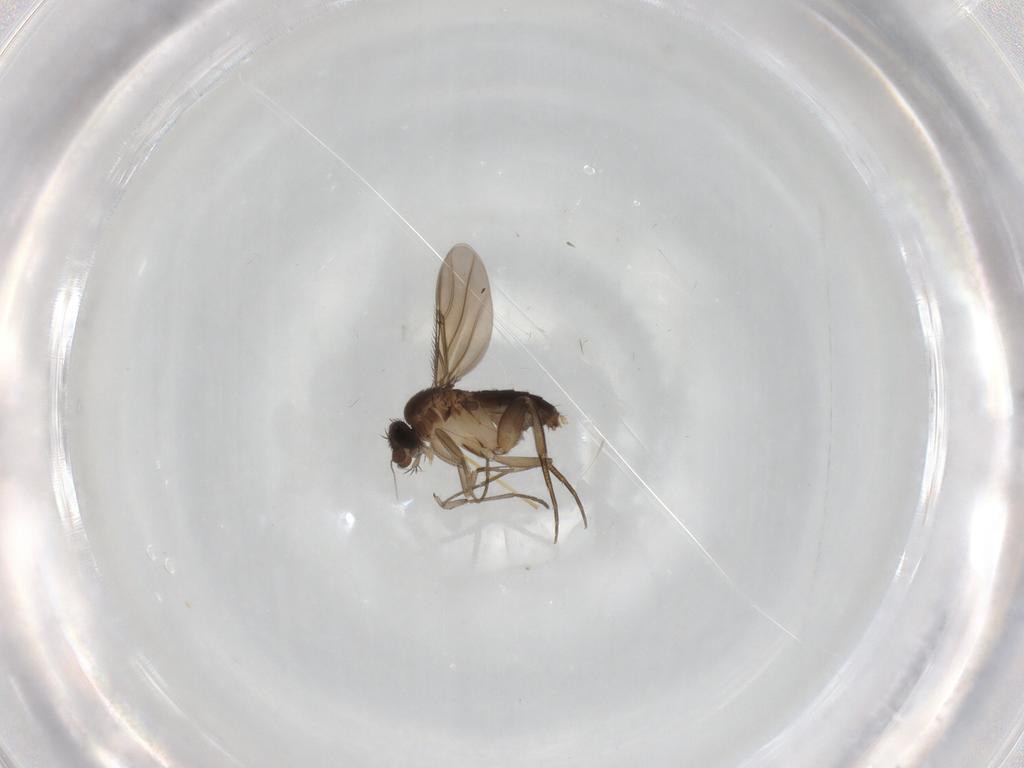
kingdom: Animalia
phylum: Arthropoda
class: Insecta
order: Diptera
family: Phoridae
